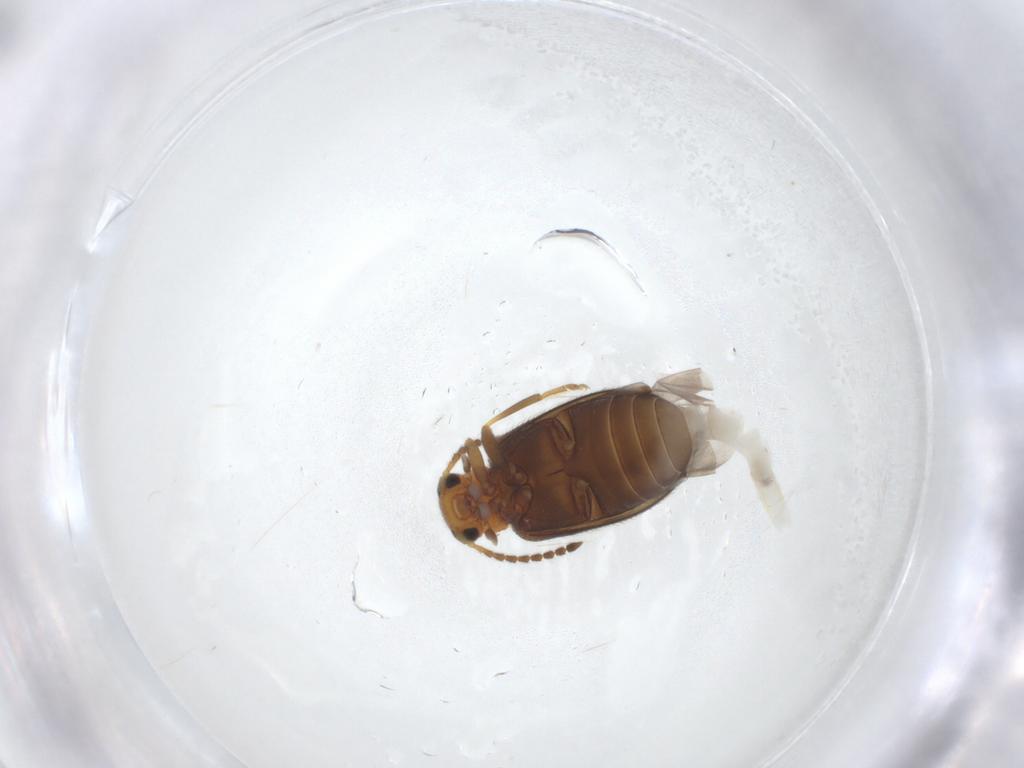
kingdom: Animalia
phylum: Arthropoda
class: Insecta
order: Coleoptera
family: Aderidae
